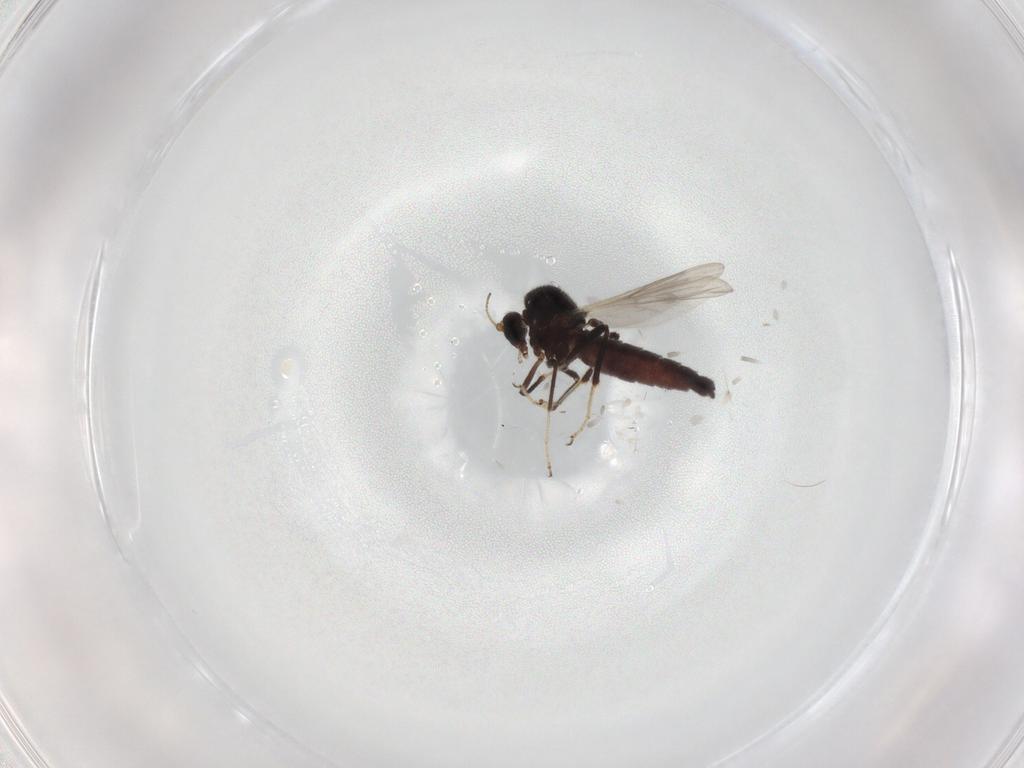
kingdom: Animalia
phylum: Arthropoda
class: Insecta
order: Diptera
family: Ceratopogonidae
